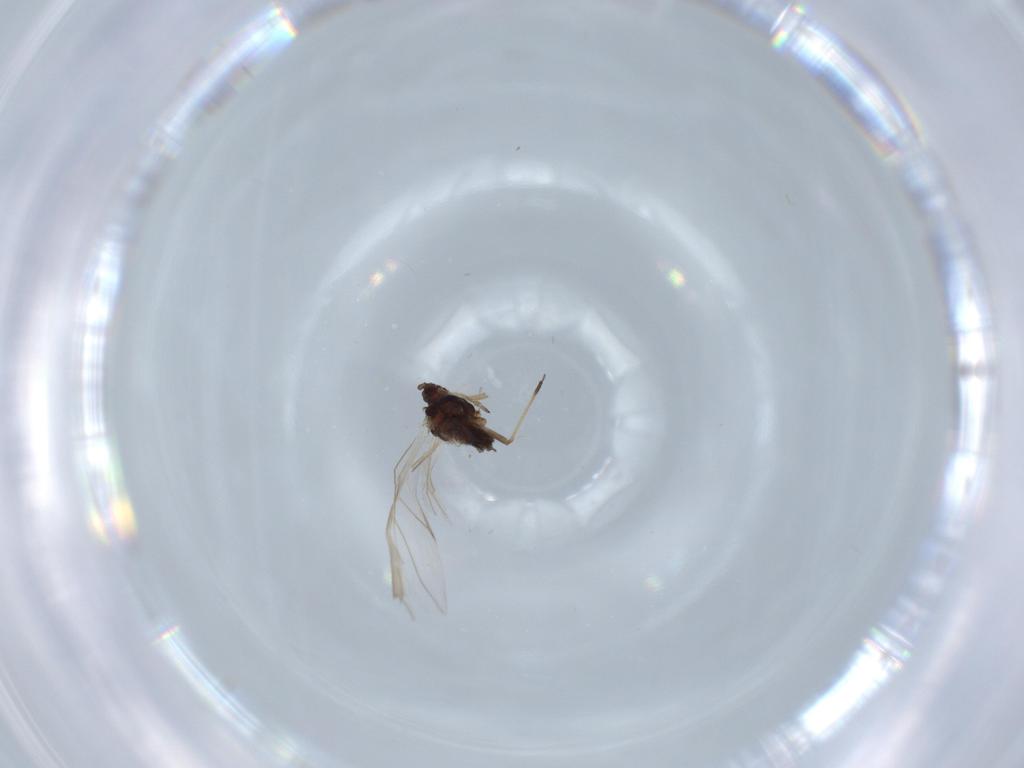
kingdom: Animalia
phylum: Arthropoda
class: Insecta
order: Hemiptera
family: Aphididae
